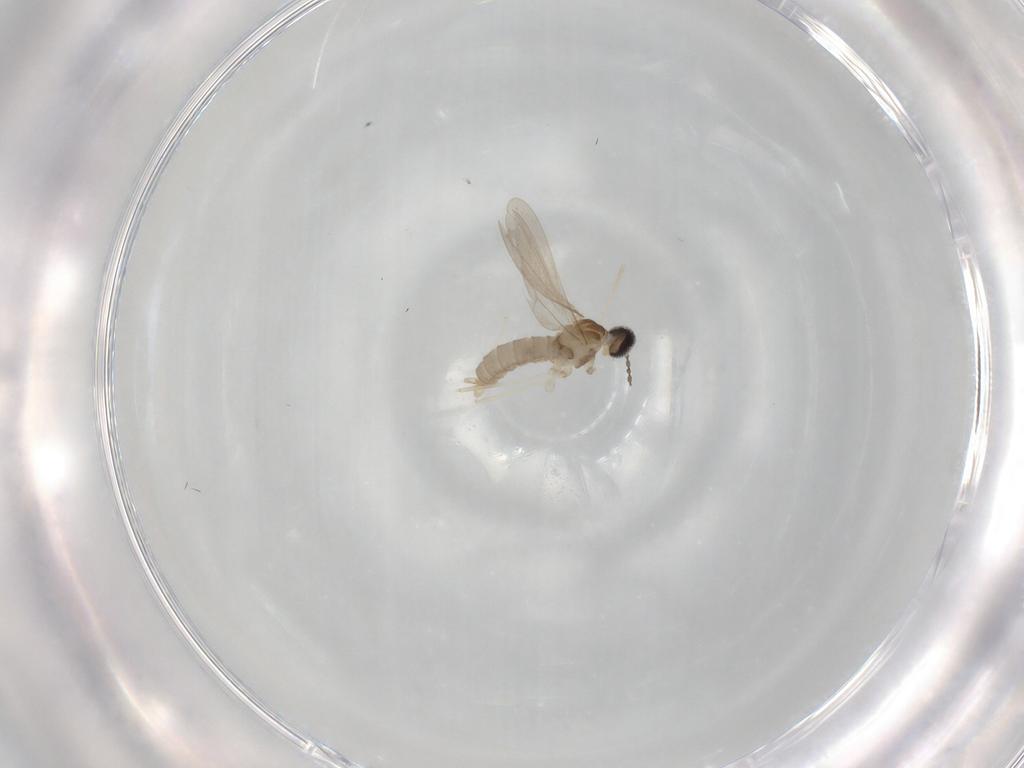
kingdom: Animalia
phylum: Arthropoda
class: Insecta
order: Diptera
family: Cecidomyiidae
